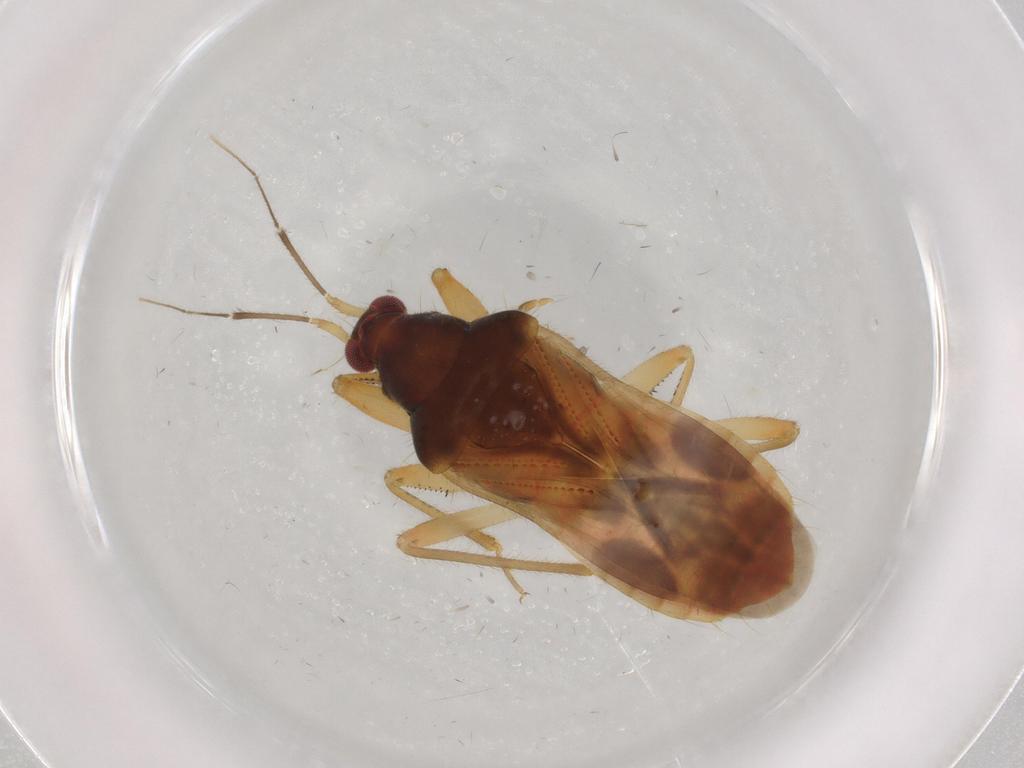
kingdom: Animalia
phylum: Arthropoda
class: Insecta
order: Hemiptera
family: Nabidae
